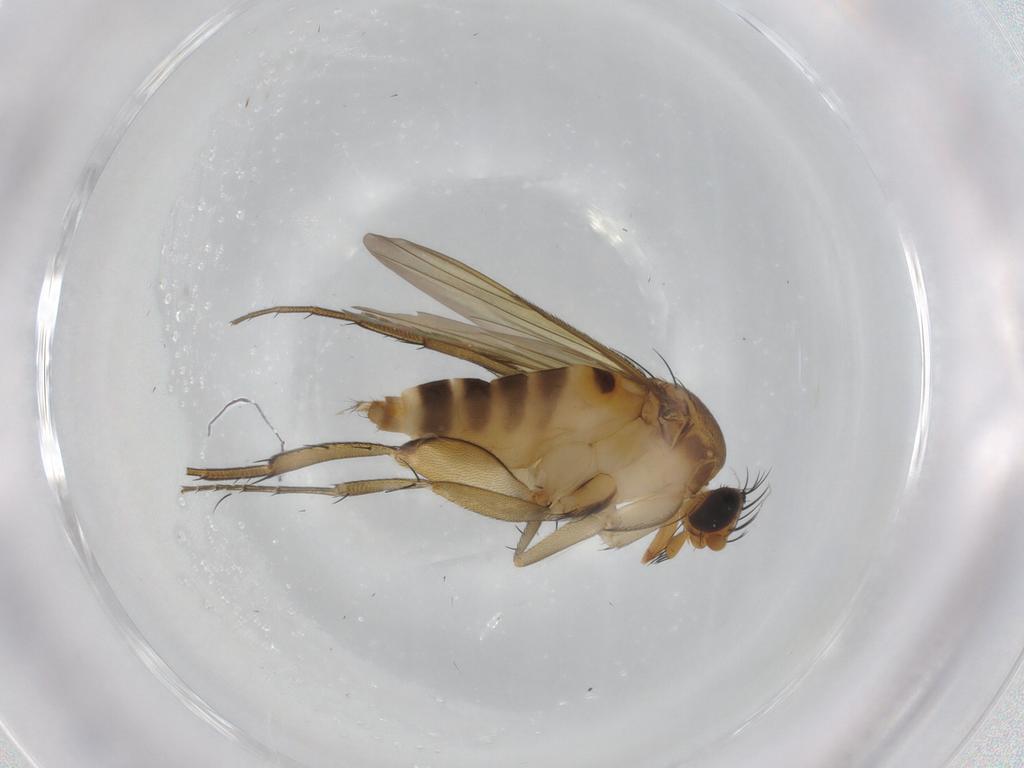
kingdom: Animalia
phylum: Arthropoda
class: Insecta
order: Diptera
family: Phoridae
